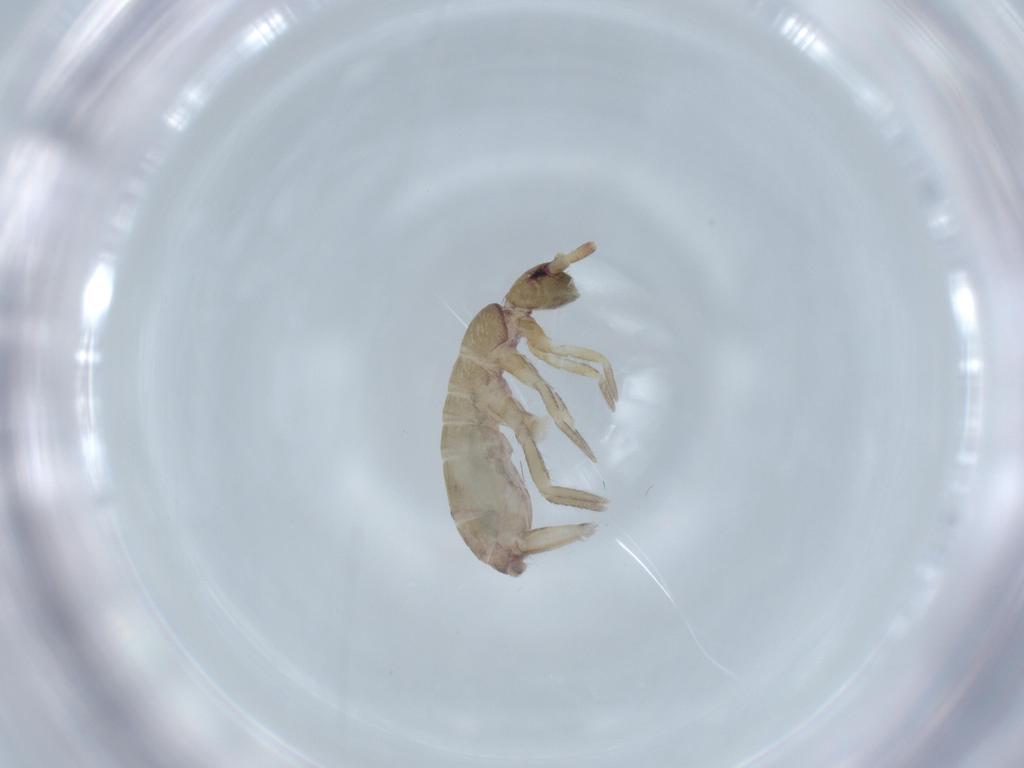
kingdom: Animalia
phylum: Arthropoda
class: Collembola
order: Entomobryomorpha
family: Tomoceridae
